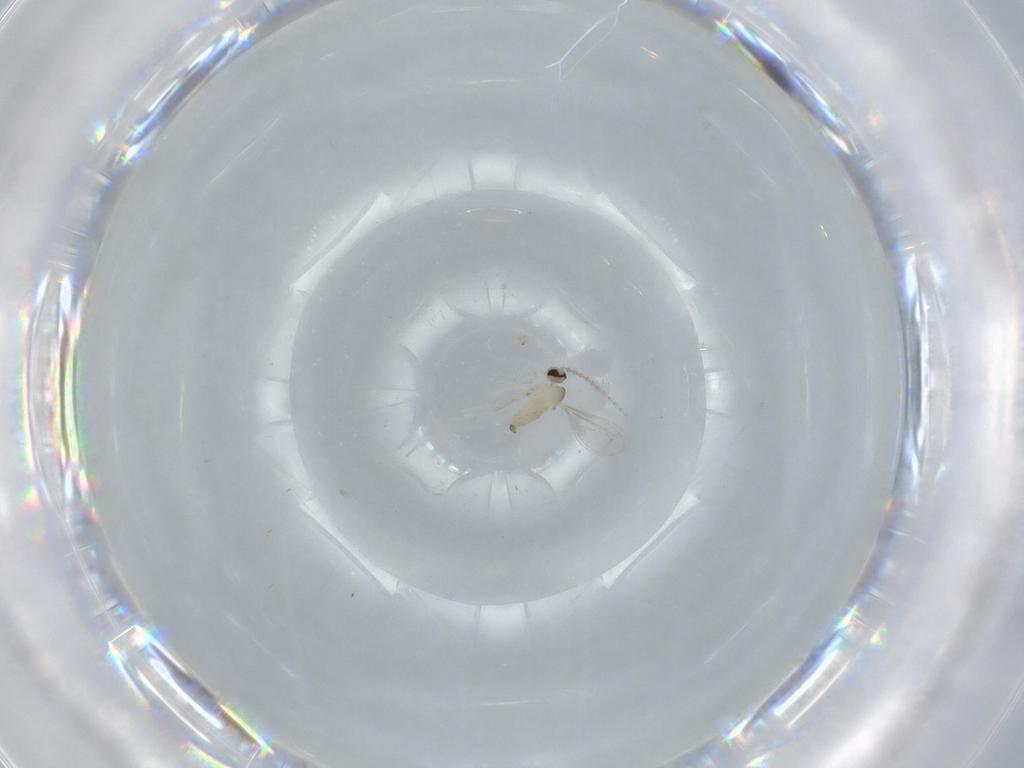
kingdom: Animalia
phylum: Arthropoda
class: Insecta
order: Diptera
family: Cecidomyiidae
